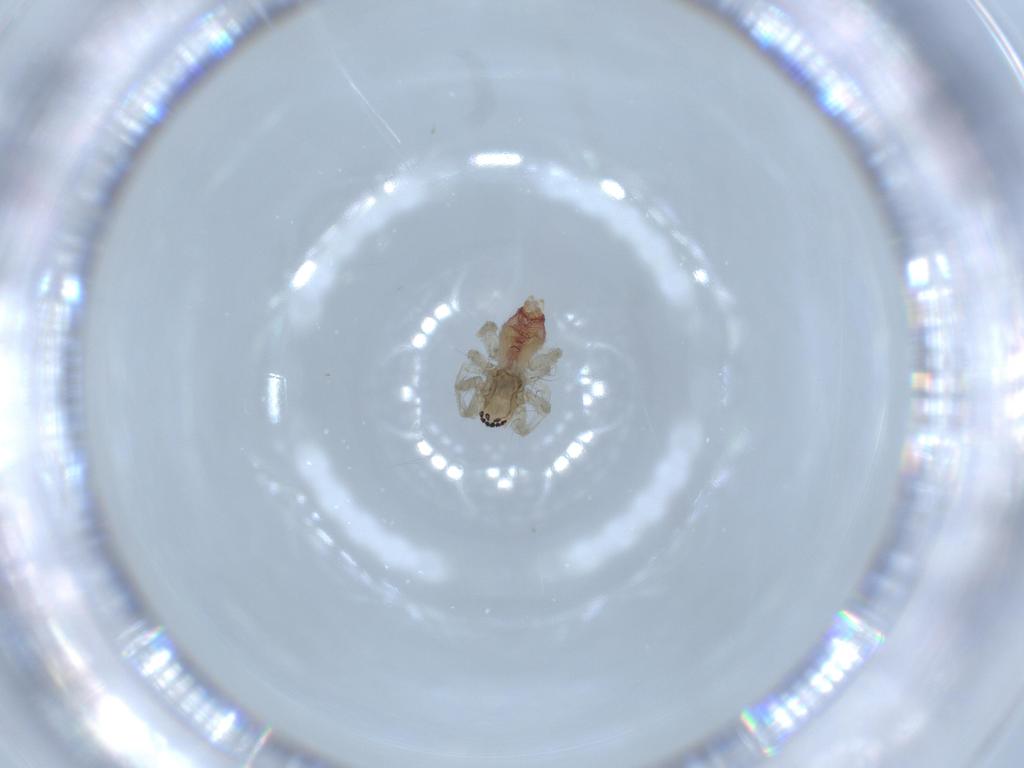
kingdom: Animalia
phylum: Arthropoda
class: Arachnida
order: Araneae
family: Clubionidae
